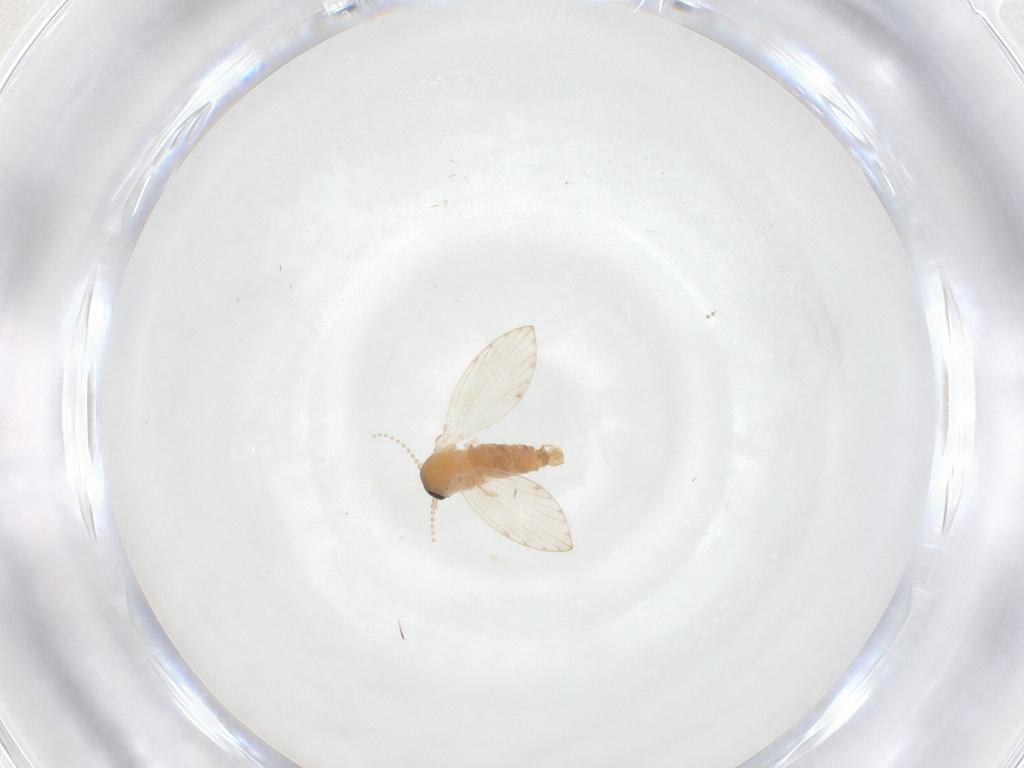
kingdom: Animalia
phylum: Arthropoda
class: Insecta
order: Diptera
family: Psychodidae
